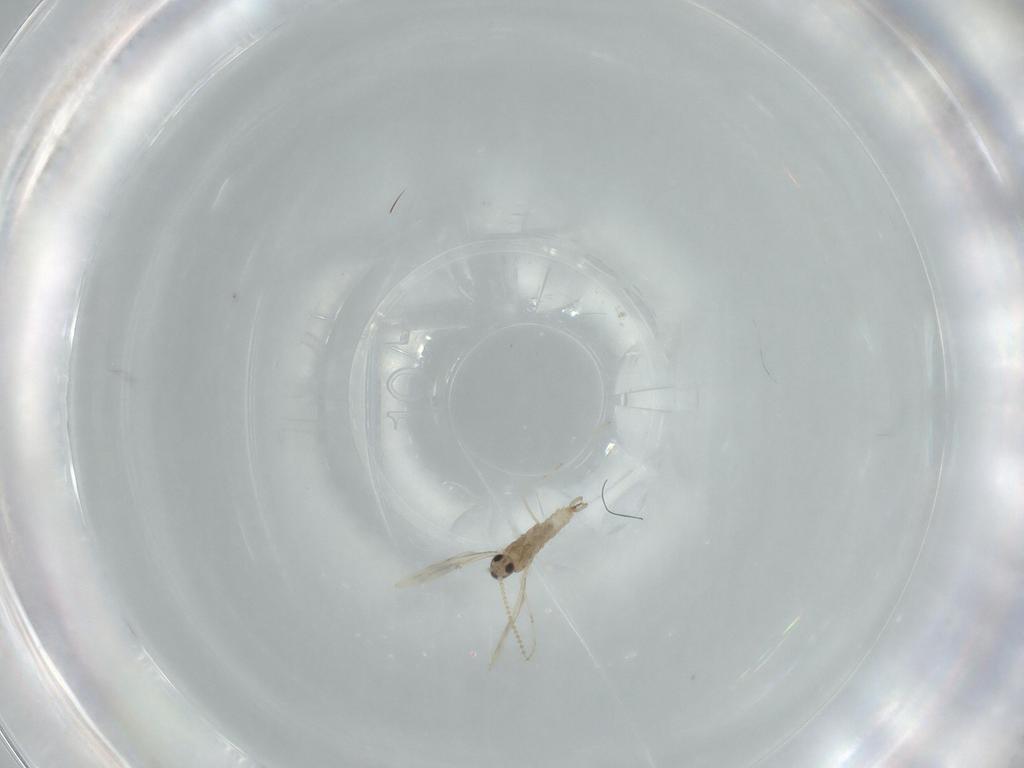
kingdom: Animalia
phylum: Arthropoda
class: Insecta
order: Diptera
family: Cecidomyiidae
